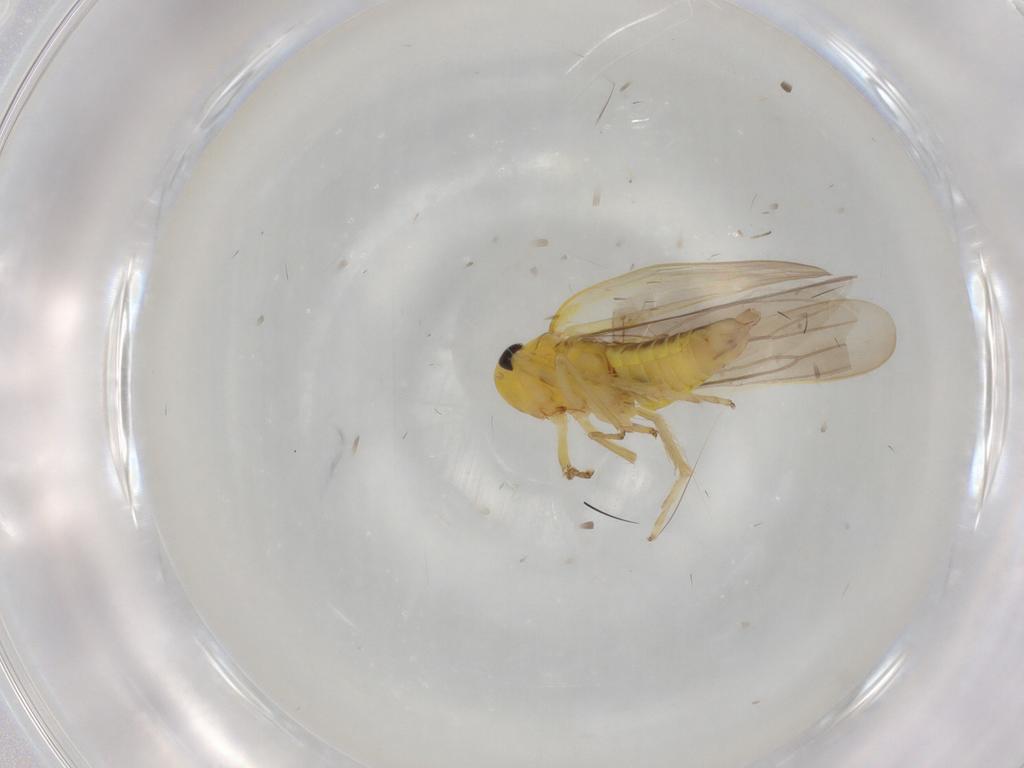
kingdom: Animalia
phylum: Arthropoda
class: Insecta
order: Hemiptera
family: Cicadellidae
